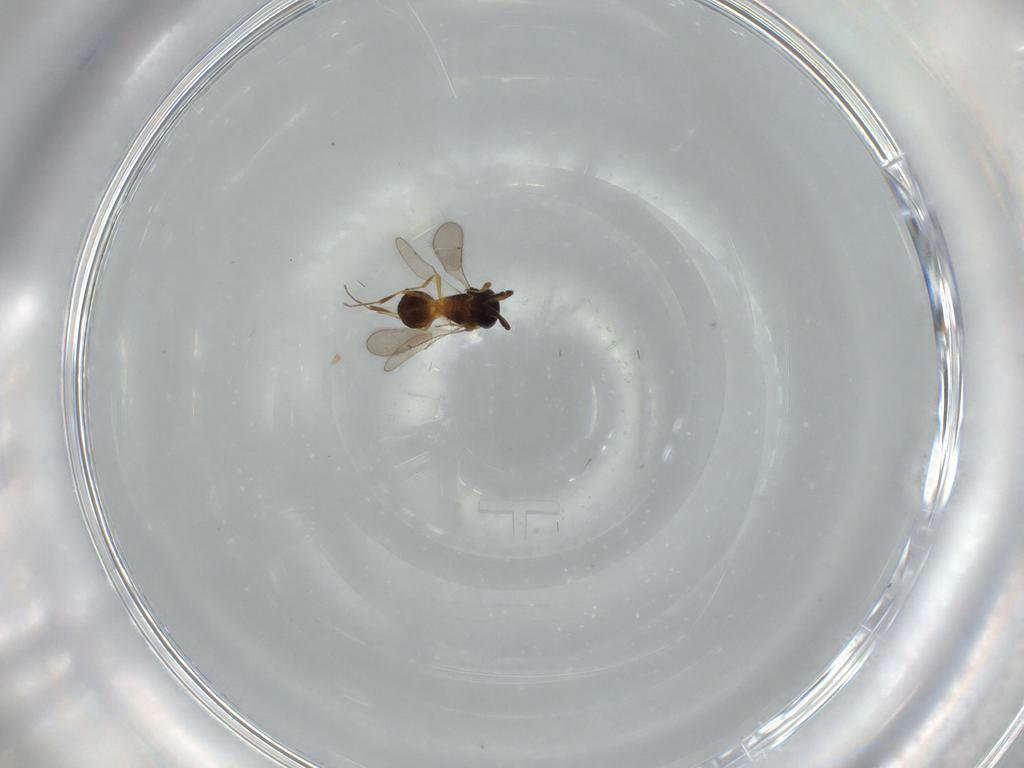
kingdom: Animalia
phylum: Arthropoda
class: Insecta
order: Hymenoptera
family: Scelionidae
